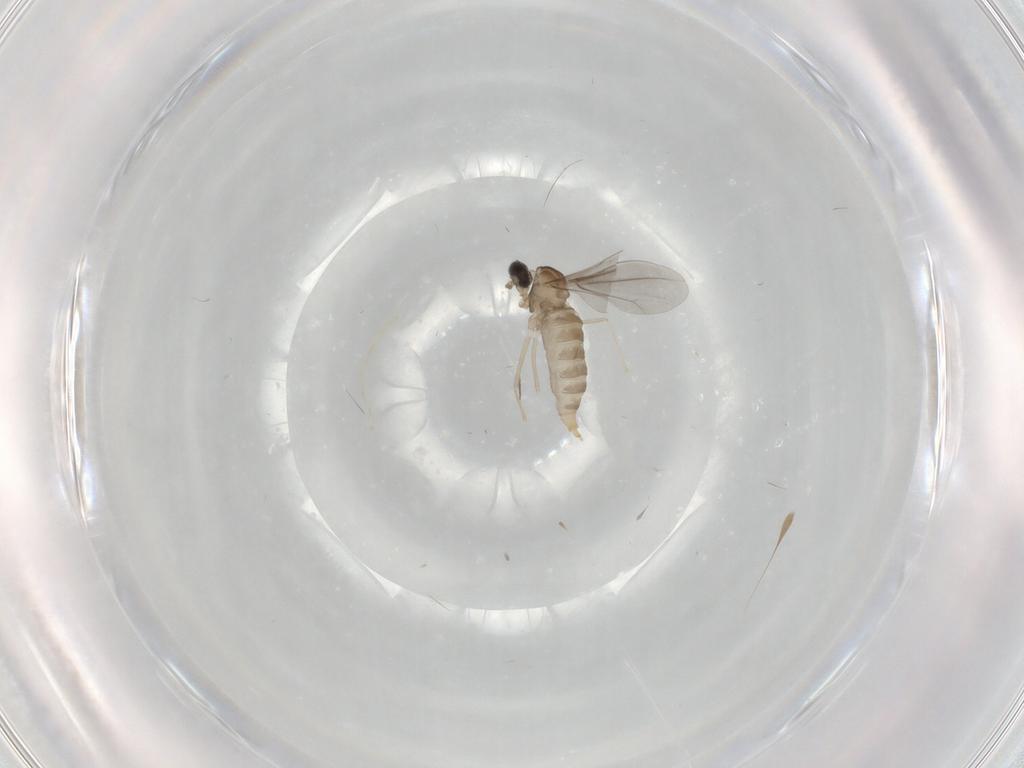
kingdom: Animalia
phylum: Arthropoda
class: Insecta
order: Diptera
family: Cecidomyiidae
